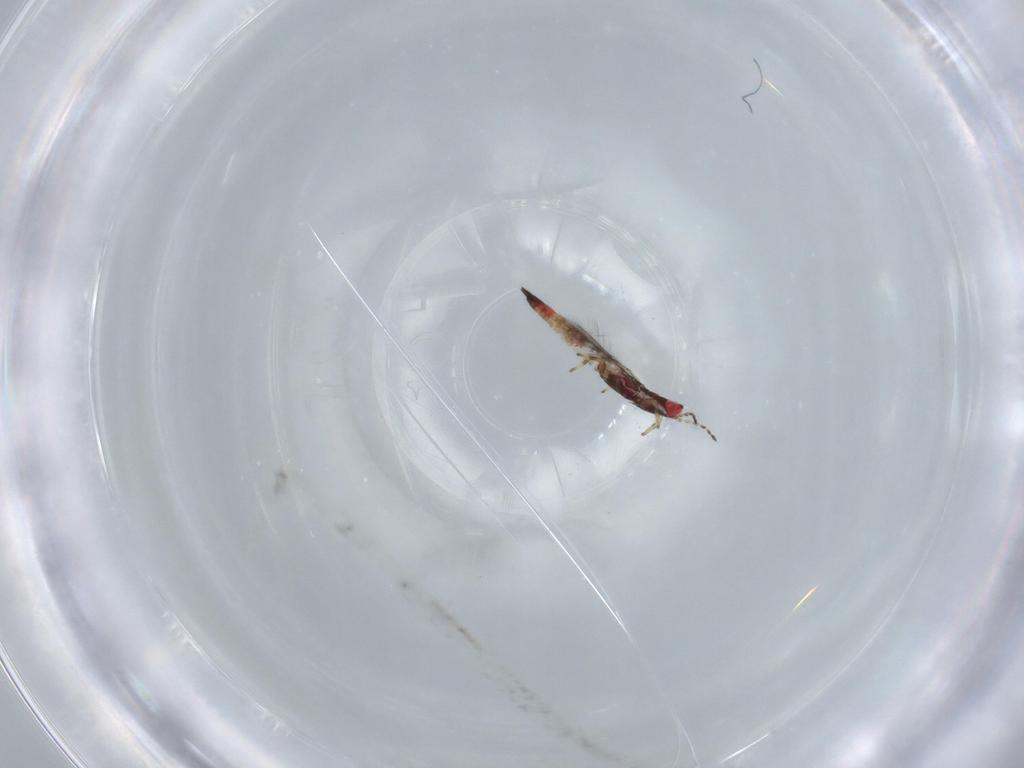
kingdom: Animalia
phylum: Arthropoda
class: Insecta
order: Thysanoptera
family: Phlaeothripidae
